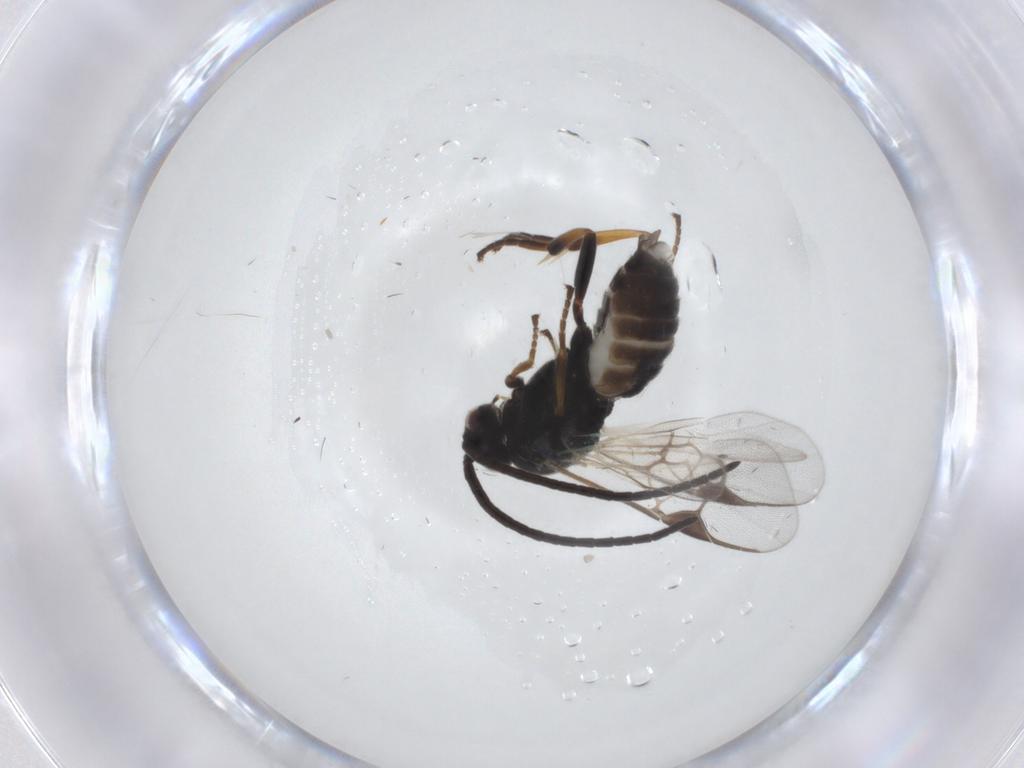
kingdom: Animalia
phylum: Arthropoda
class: Insecta
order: Hymenoptera
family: Braconidae
